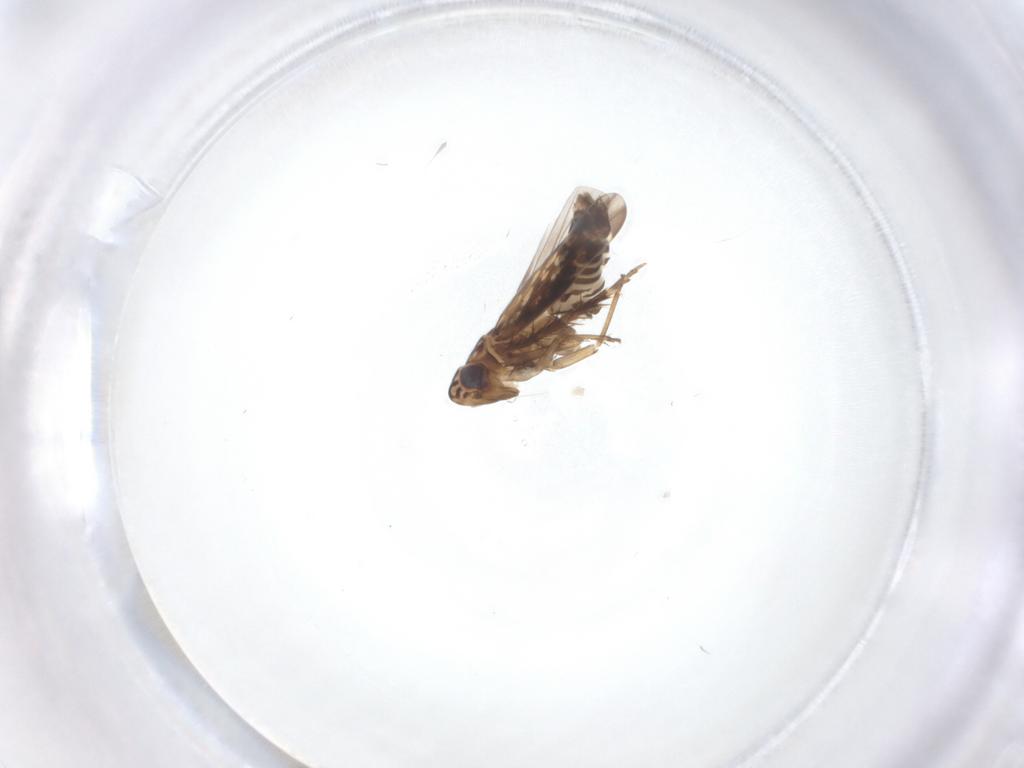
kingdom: Animalia
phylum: Arthropoda
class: Insecta
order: Hemiptera
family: Cicadellidae
